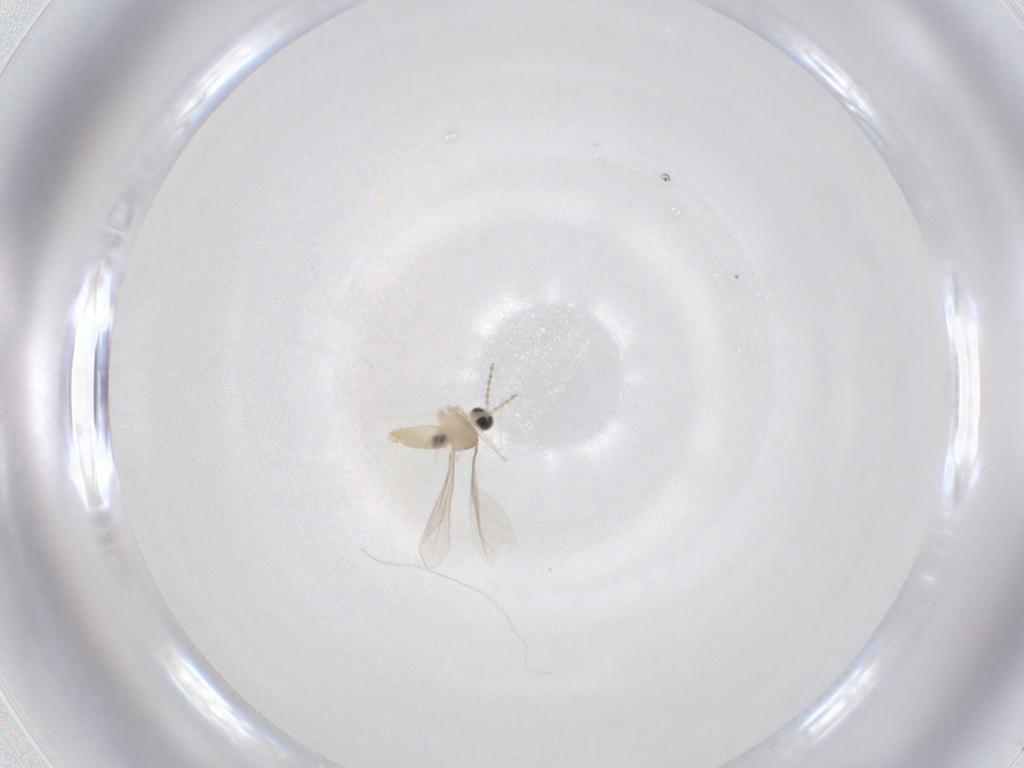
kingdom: Animalia
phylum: Arthropoda
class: Insecta
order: Diptera
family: Cecidomyiidae
